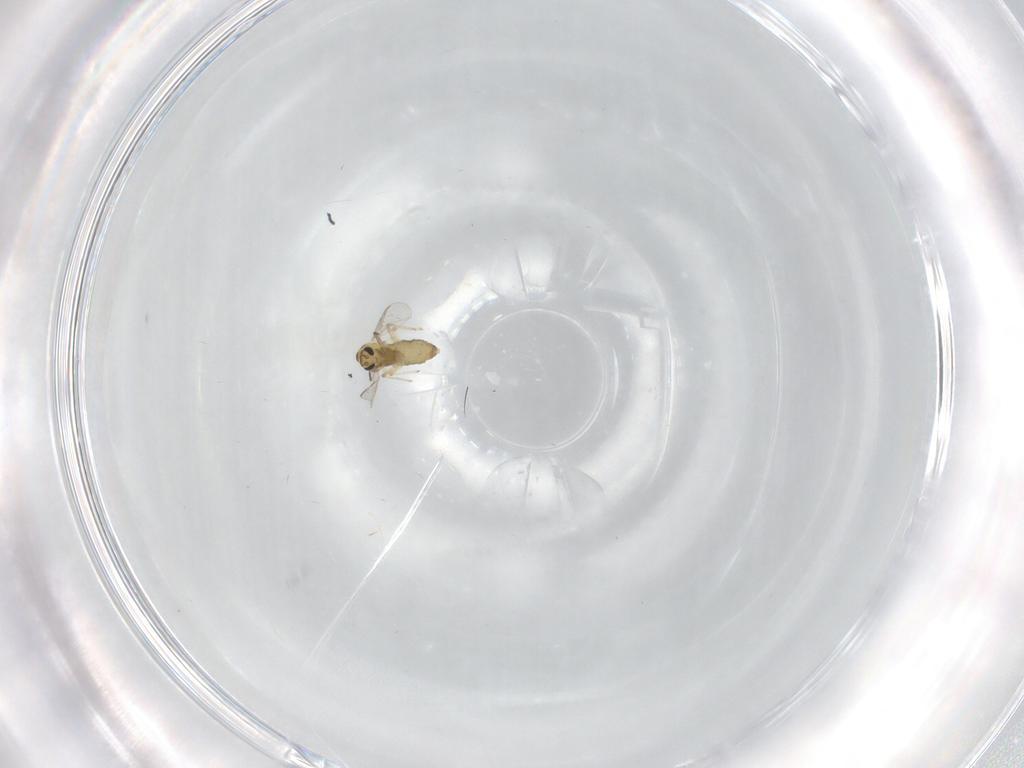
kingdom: Animalia
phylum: Arthropoda
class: Insecta
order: Diptera
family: Chironomidae
